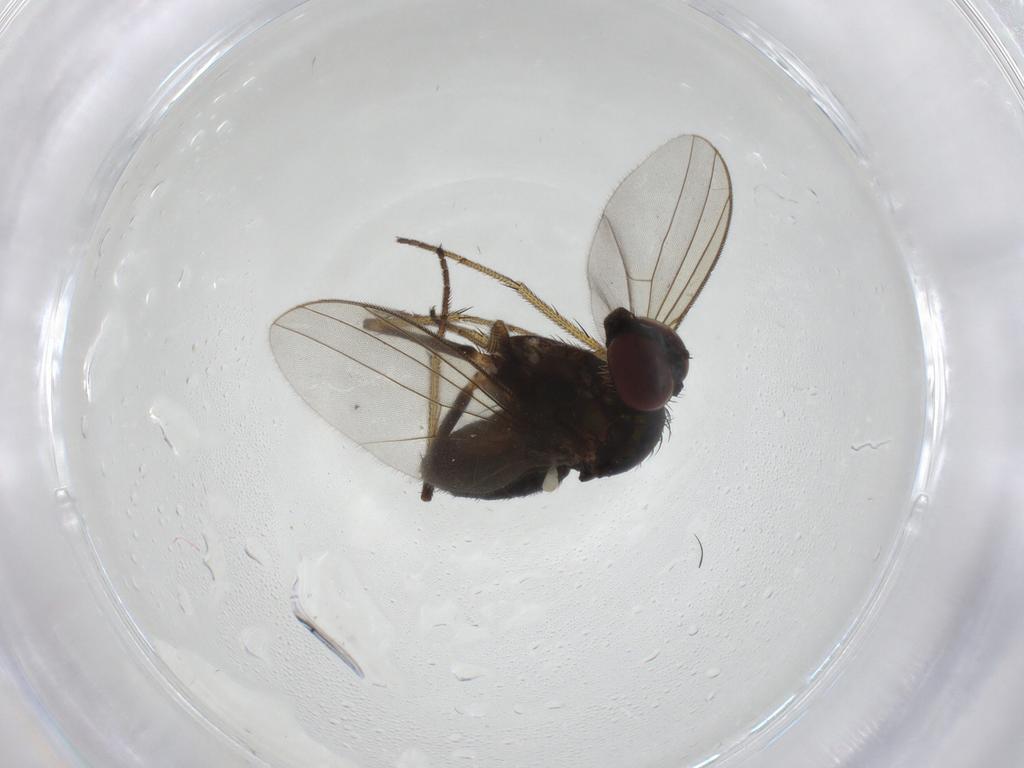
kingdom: Animalia
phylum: Arthropoda
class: Insecta
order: Diptera
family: Dolichopodidae
